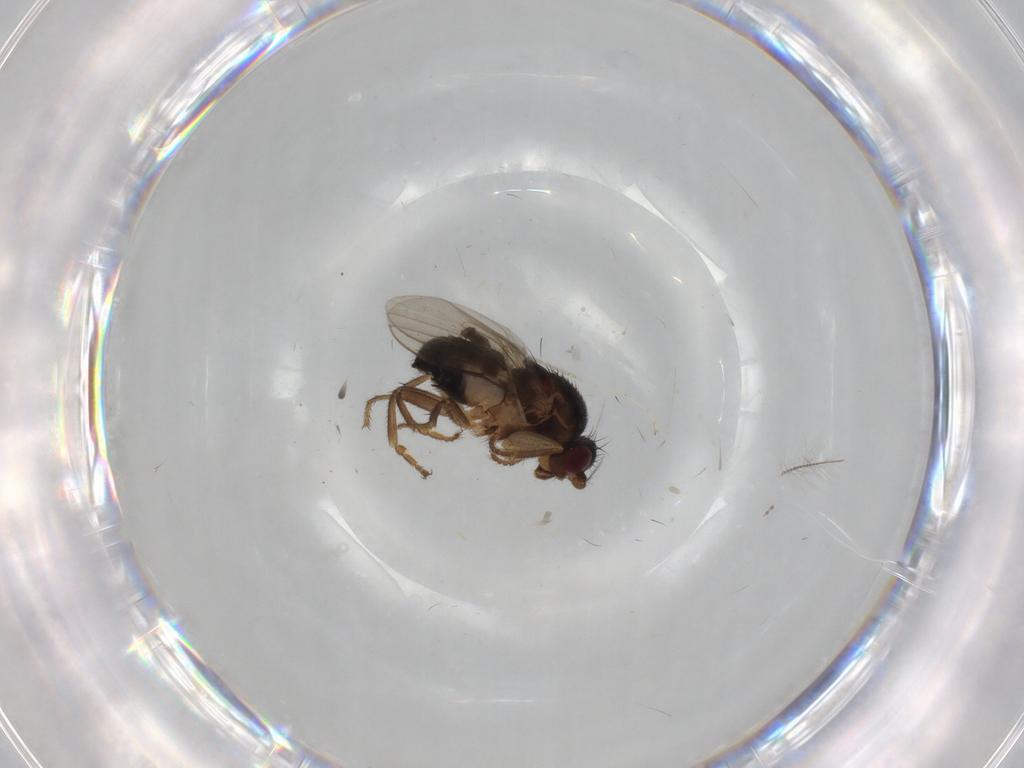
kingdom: Animalia
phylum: Arthropoda
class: Insecta
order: Diptera
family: Sphaeroceridae
